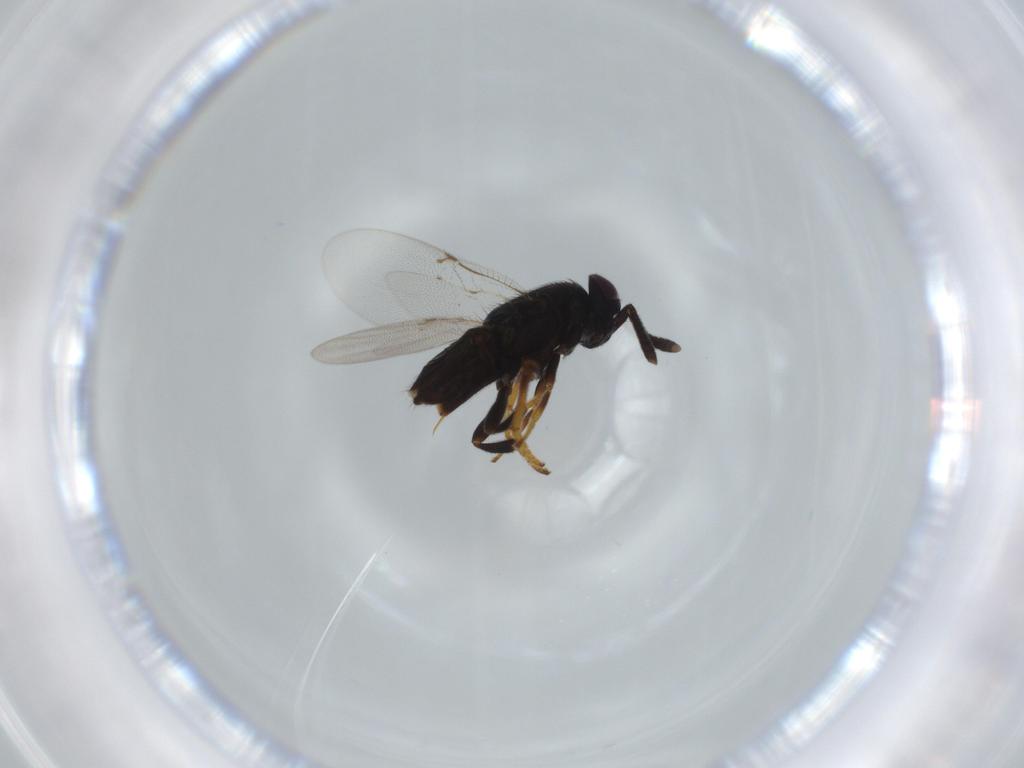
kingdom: Animalia
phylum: Arthropoda
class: Insecta
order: Hymenoptera
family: Encyrtidae
